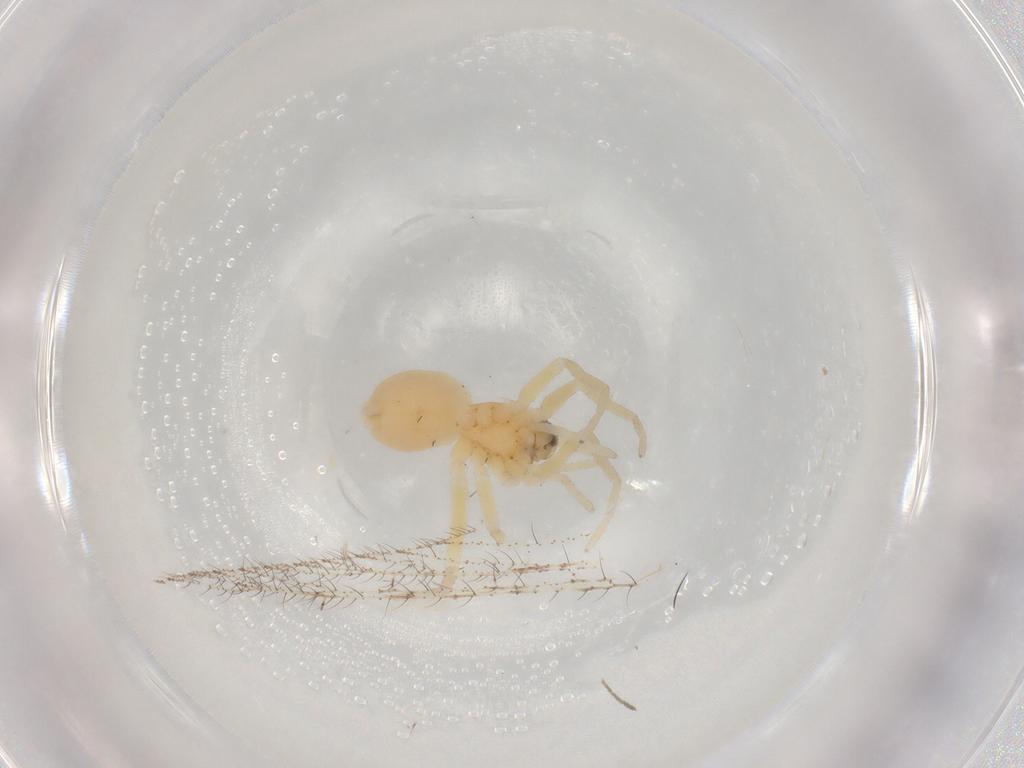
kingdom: Animalia
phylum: Arthropoda
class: Arachnida
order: Araneae
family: Gnaphosidae
